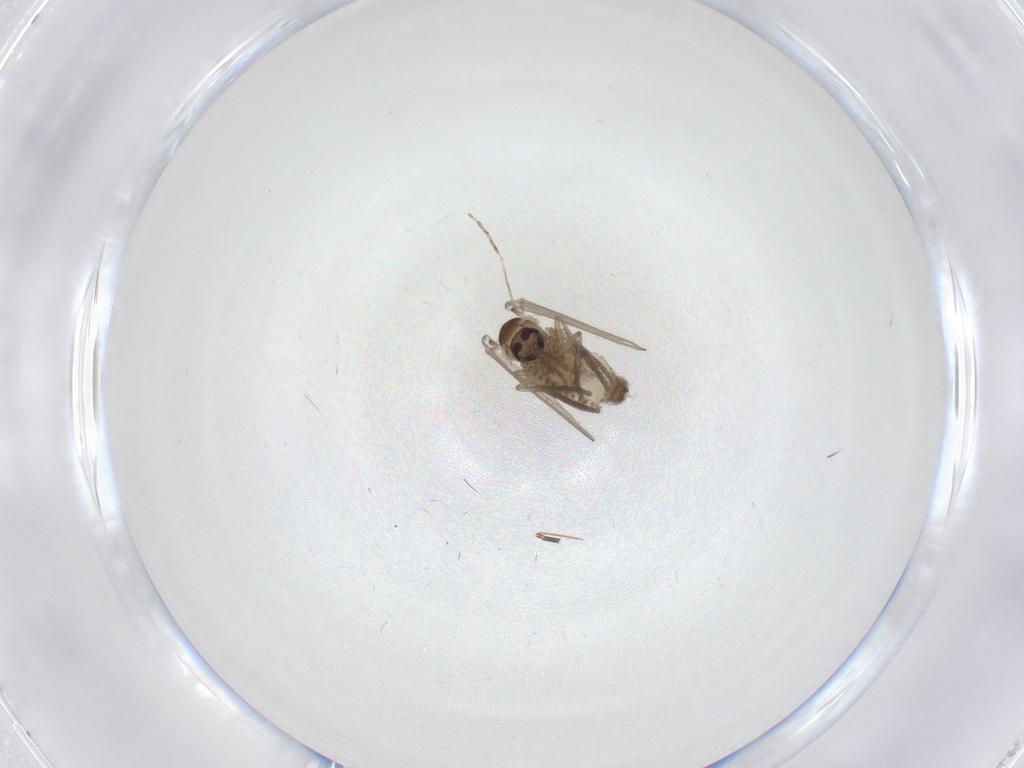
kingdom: Animalia
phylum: Arthropoda
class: Insecta
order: Diptera
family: Psychodidae
